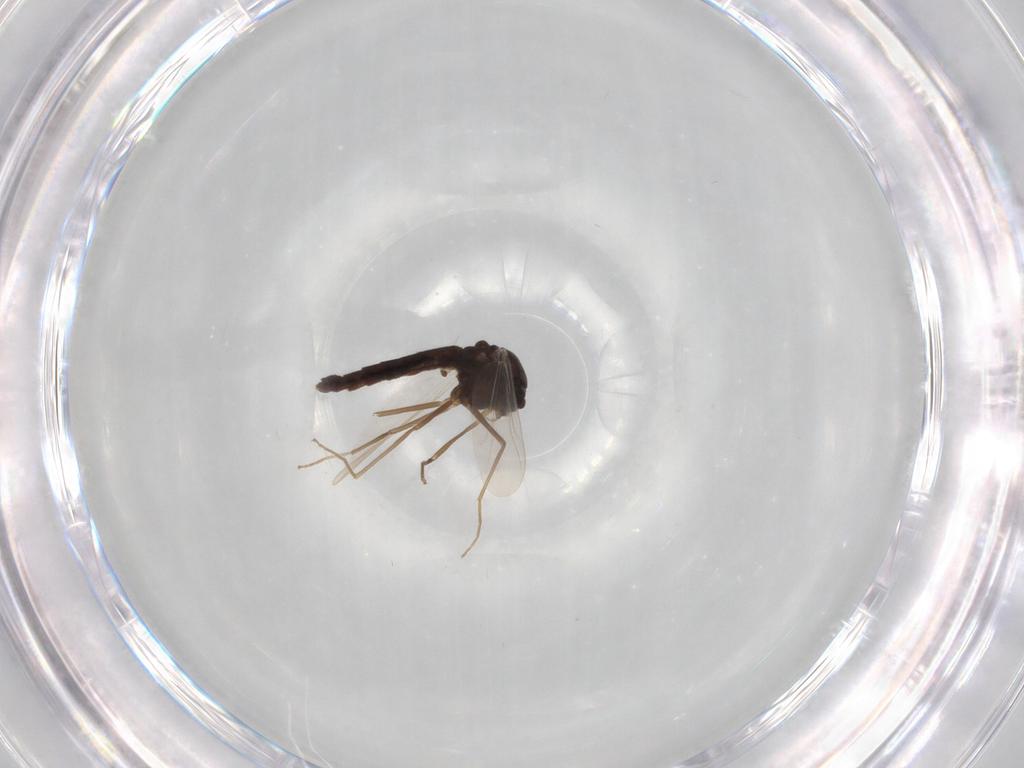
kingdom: Animalia
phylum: Arthropoda
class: Insecta
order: Diptera
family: Chironomidae
